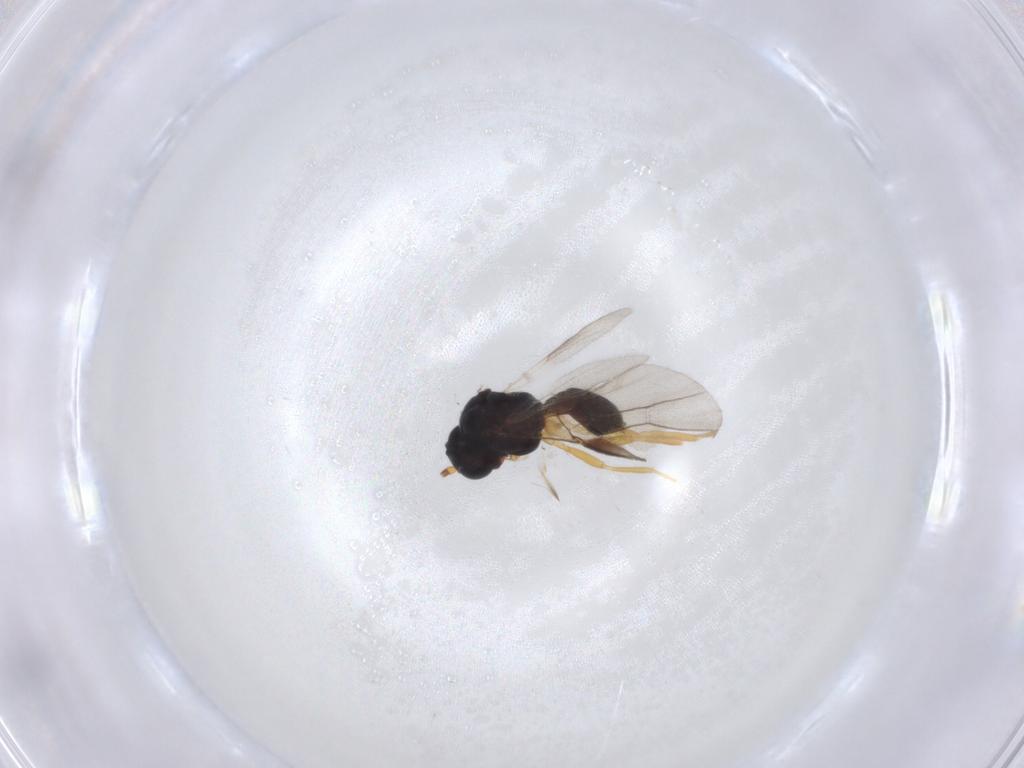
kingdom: Animalia
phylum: Arthropoda
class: Insecta
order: Hymenoptera
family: Braconidae
